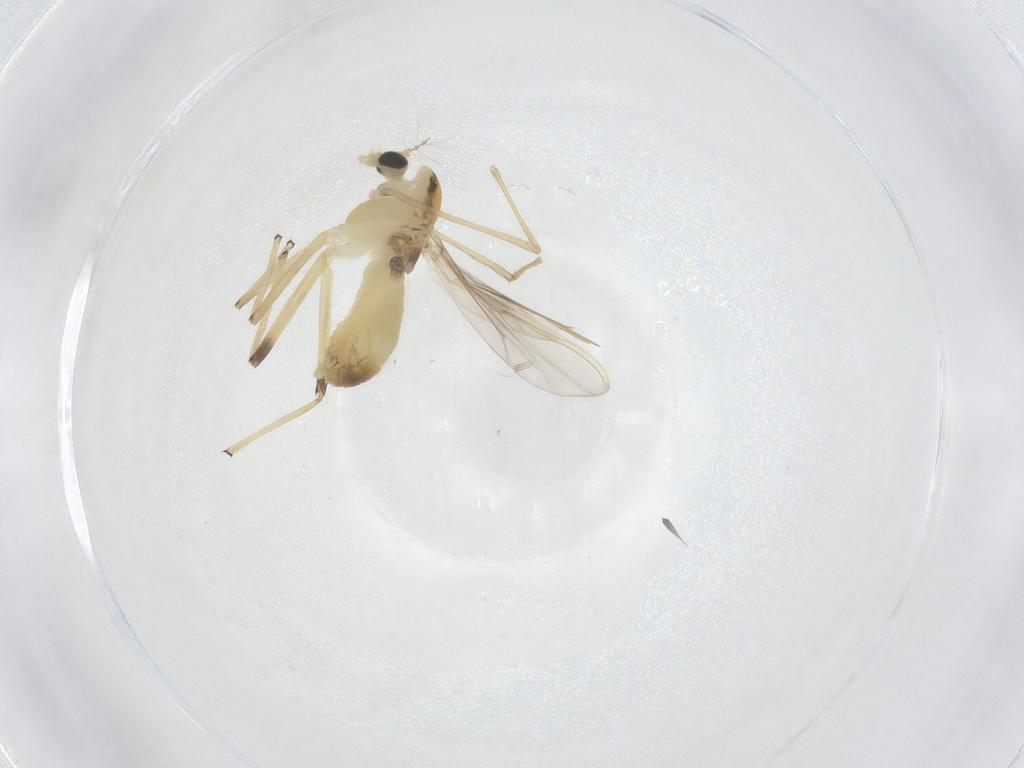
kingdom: Animalia
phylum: Arthropoda
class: Insecta
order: Diptera
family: Chironomidae
